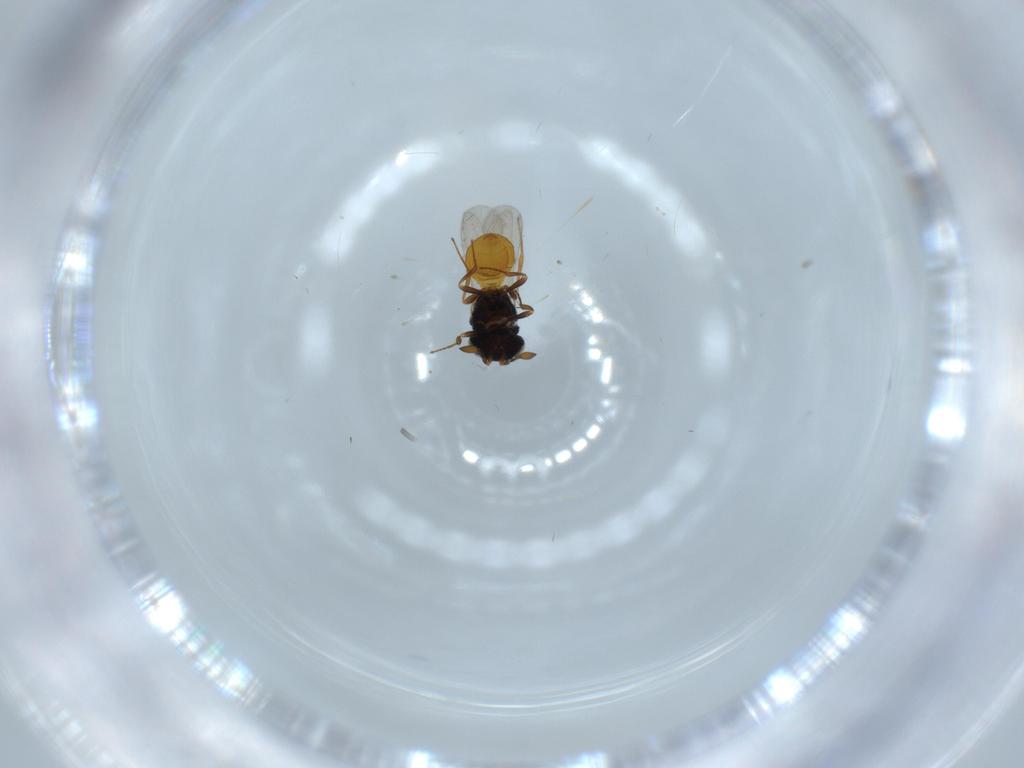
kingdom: Animalia
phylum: Arthropoda
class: Insecta
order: Hymenoptera
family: Scelionidae
